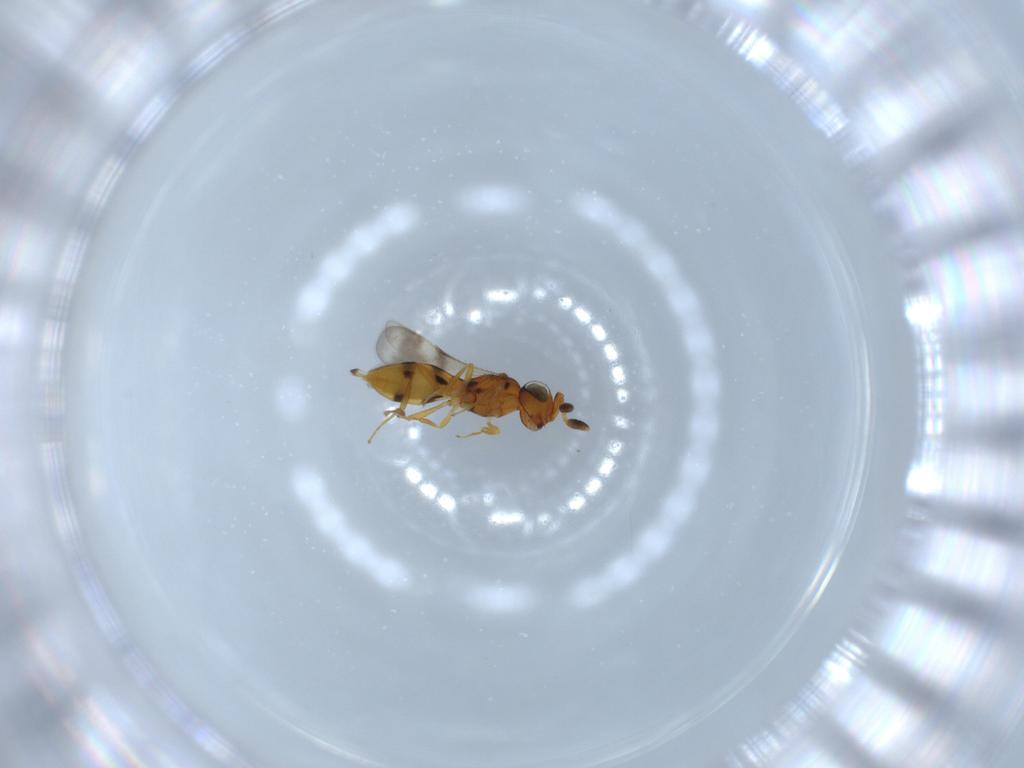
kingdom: Animalia
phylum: Arthropoda
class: Insecta
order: Hymenoptera
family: Scelionidae
